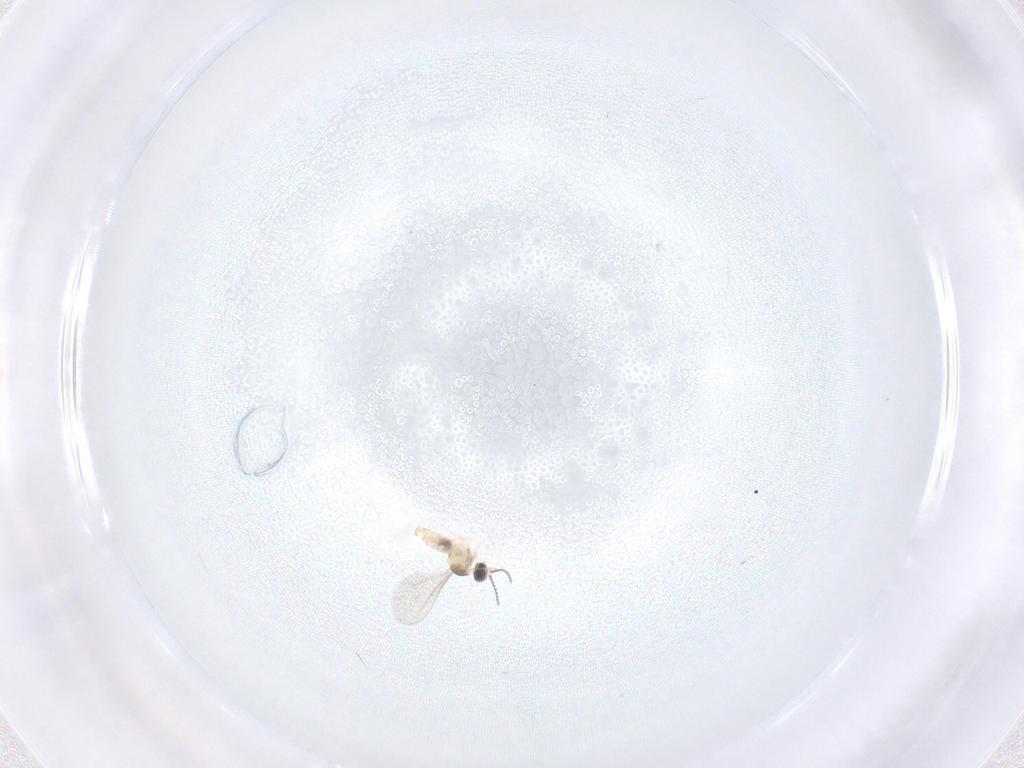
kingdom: Animalia
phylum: Arthropoda
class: Insecta
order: Diptera
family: Cecidomyiidae
